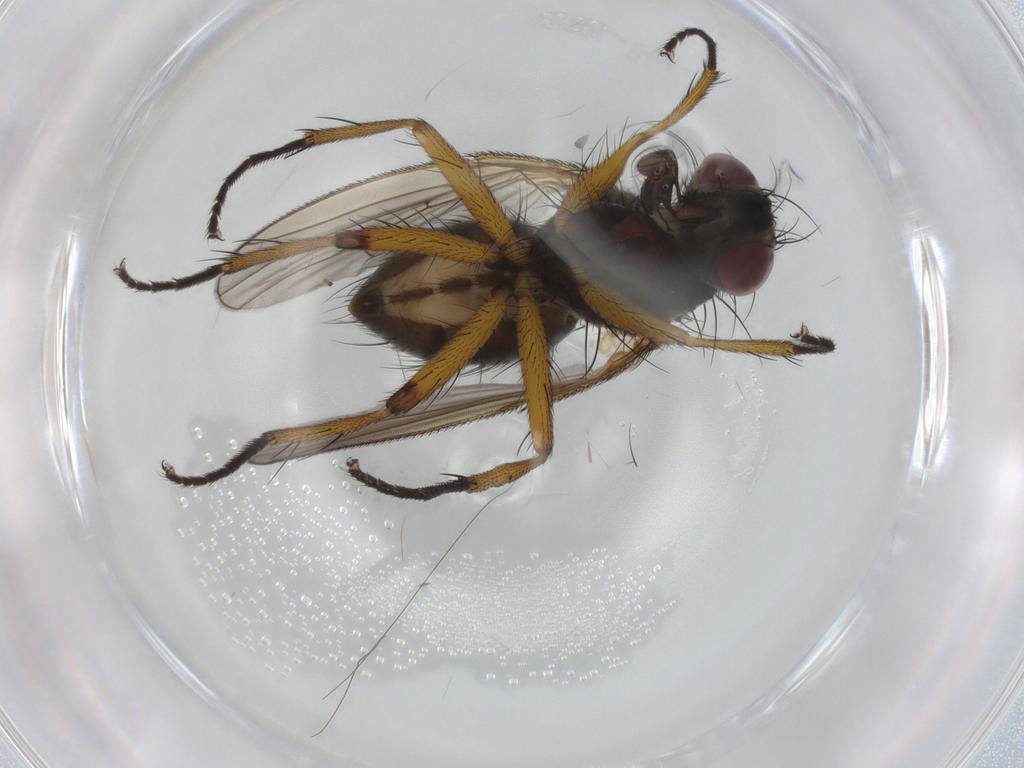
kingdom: Animalia
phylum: Arthropoda
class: Insecta
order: Diptera
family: Muscidae
